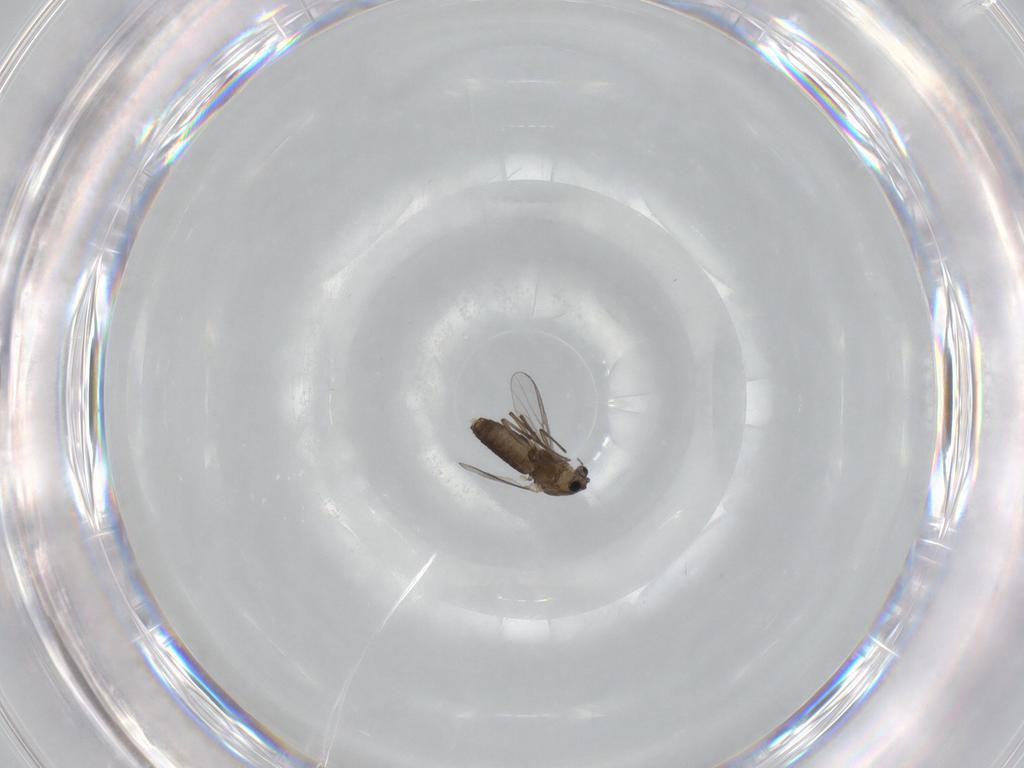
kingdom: Animalia
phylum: Arthropoda
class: Insecta
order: Diptera
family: Chironomidae
